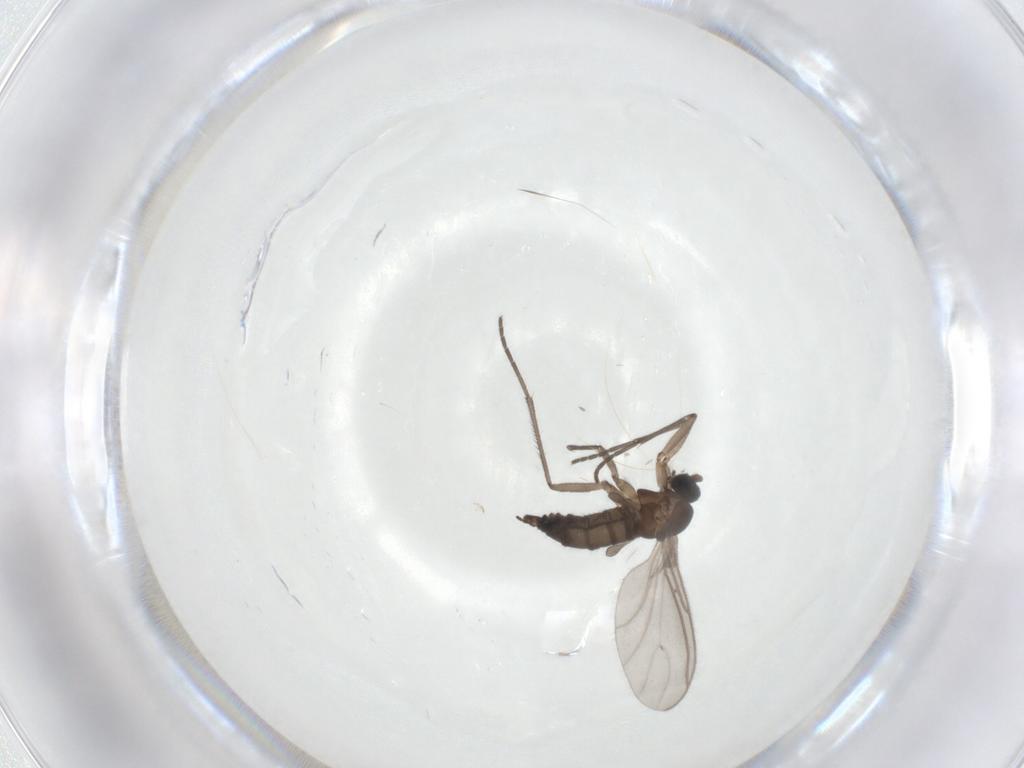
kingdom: Animalia
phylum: Arthropoda
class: Insecta
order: Diptera
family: Sciaridae
